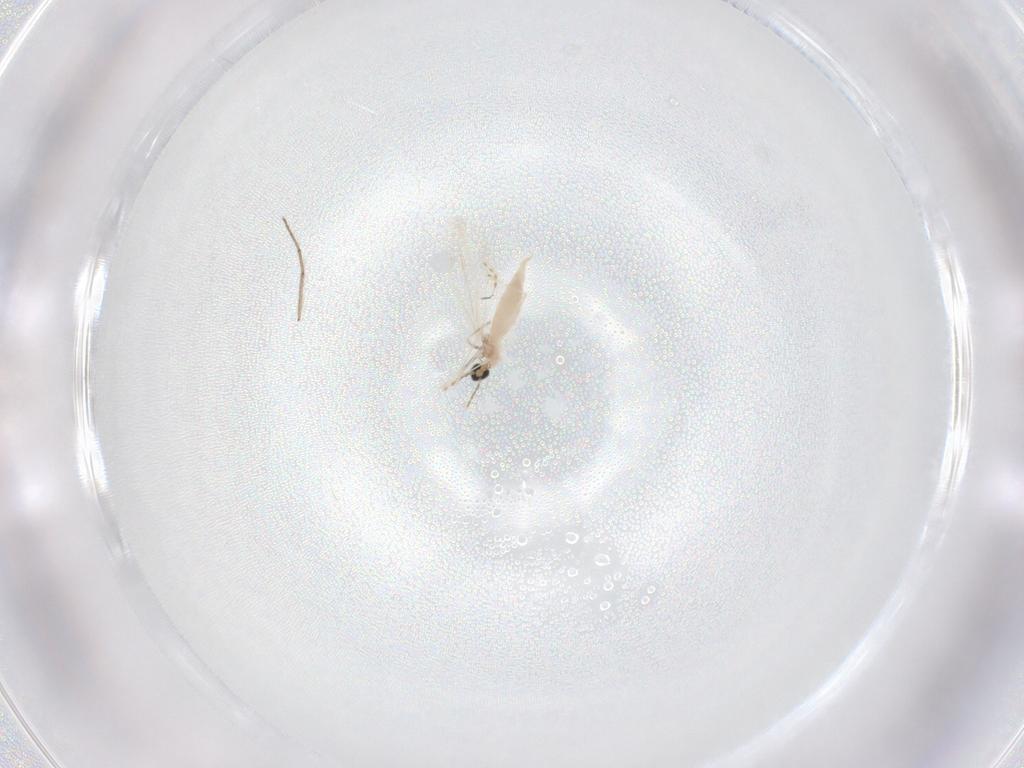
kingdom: Animalia
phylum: Arthropoda
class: Insecta
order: Diptera
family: Cecidomyiidae
